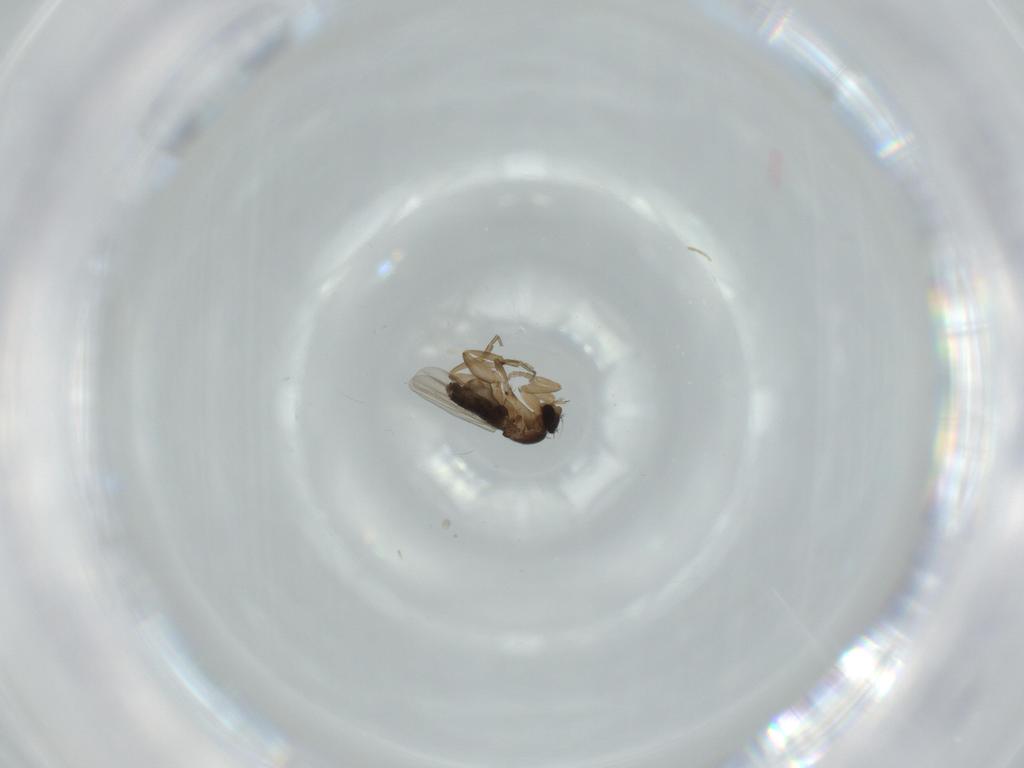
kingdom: Animalia
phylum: Arthropoda
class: Insecta
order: Diptera
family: Phoridae
